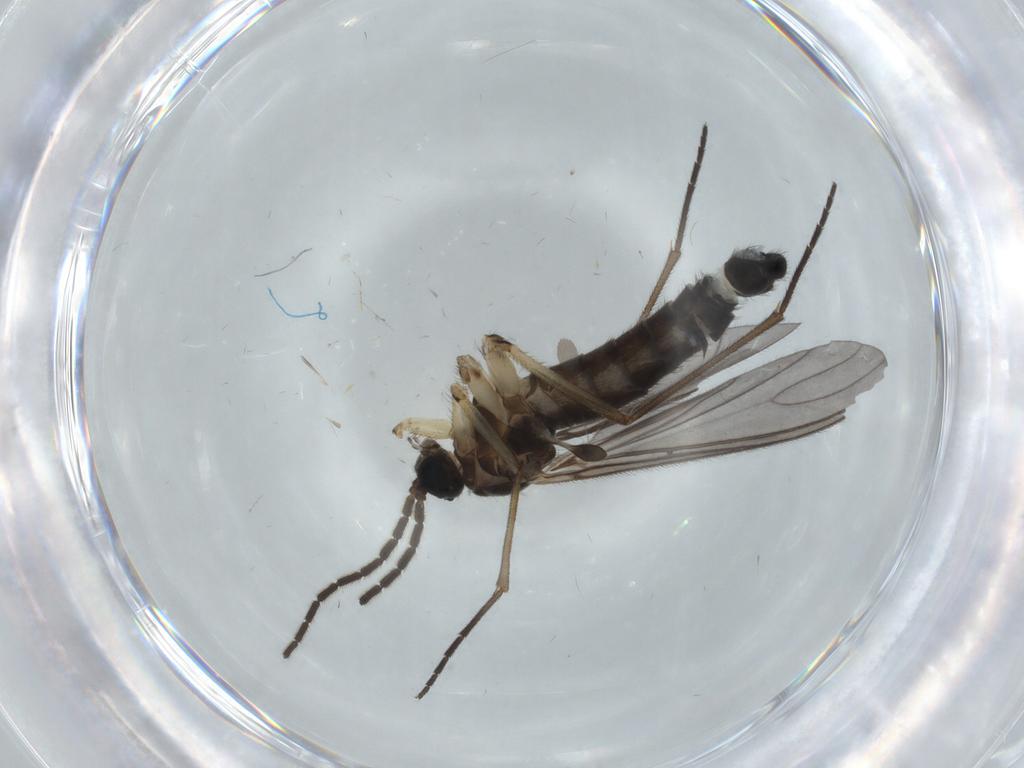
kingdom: Animalia
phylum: Arthropoda
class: Insecta
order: Diptera
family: Sciaridae
